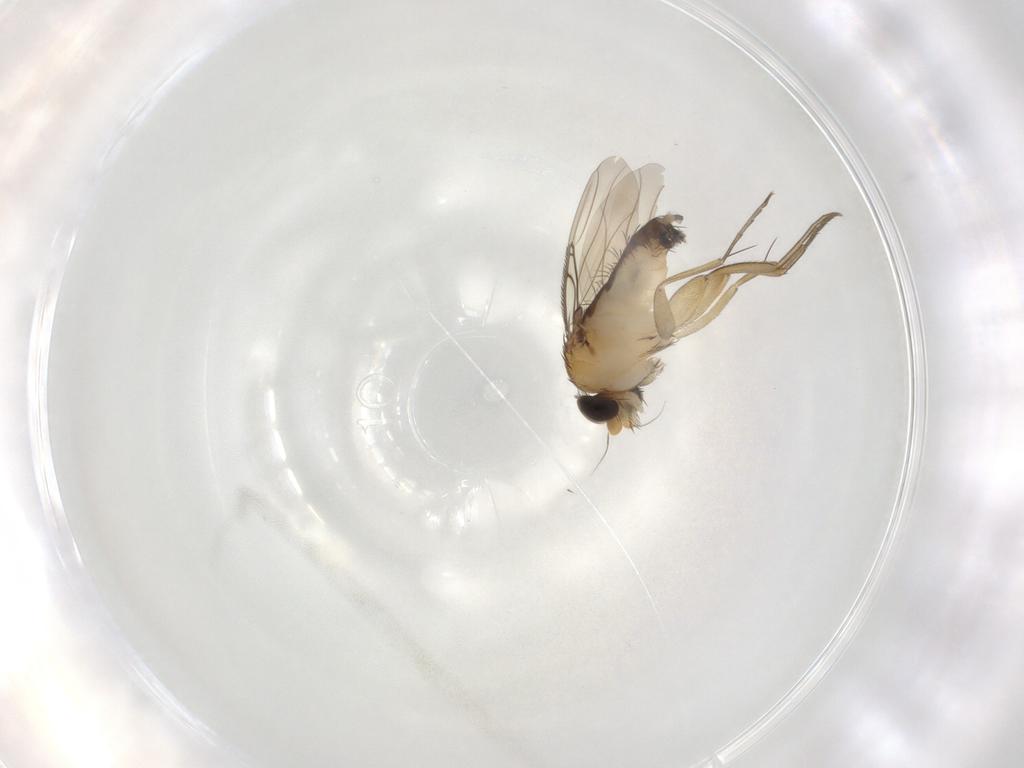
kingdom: Animalia
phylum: Arthropoda
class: Insecta
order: Diptera
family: Phoridae
